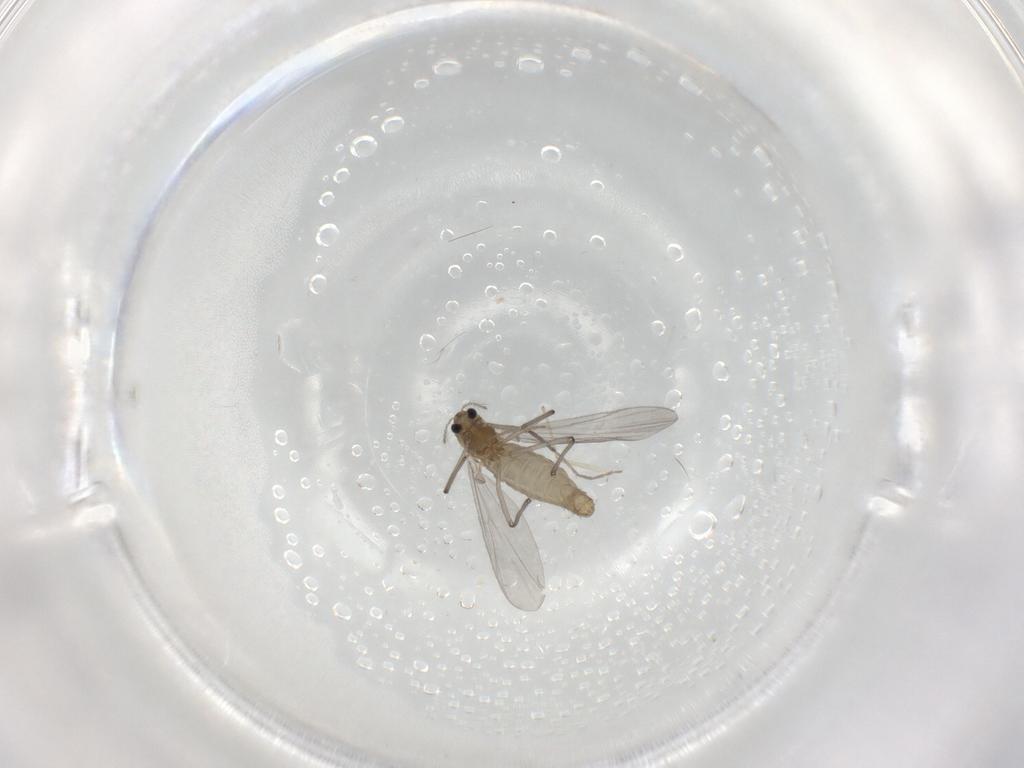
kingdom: Animalia
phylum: Arthropoda
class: Insecta
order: Diptera
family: Chironomidae
